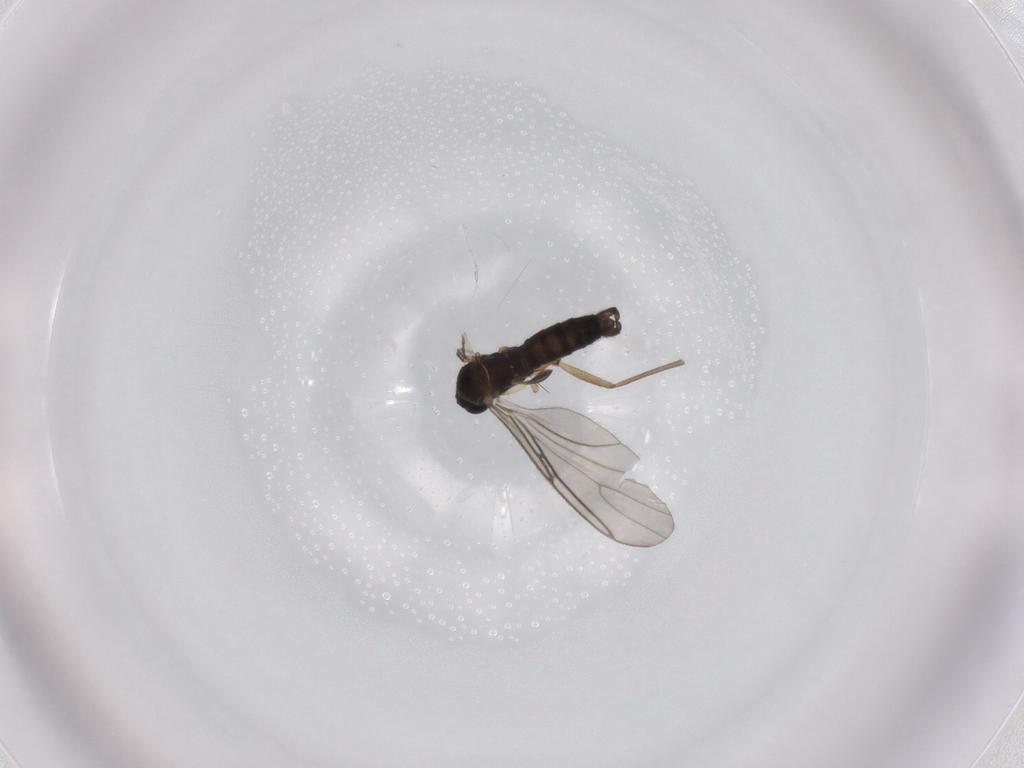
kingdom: Animalia
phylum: Arthropoda
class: Insecta
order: Diptera
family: Sciaridae
